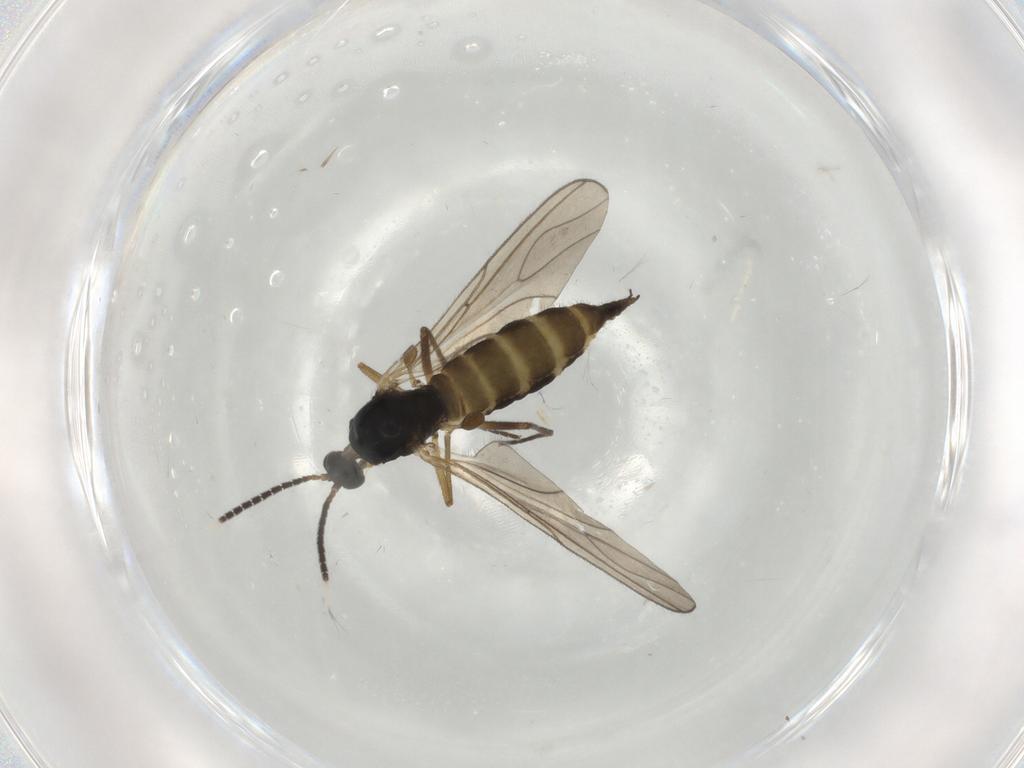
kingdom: Animalia
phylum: Arthropoda
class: Insecta
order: Diptera
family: Sciaridae
